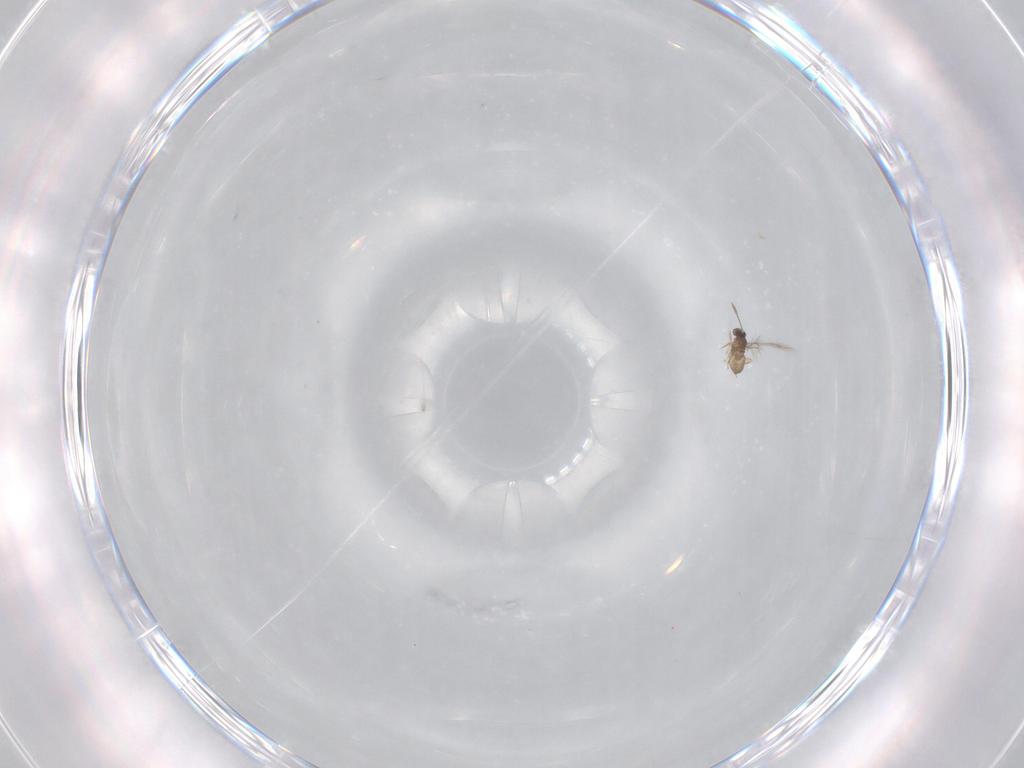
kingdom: Animalia
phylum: Arthropoda
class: Insecta
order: Hymenoptera
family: Mymaridae
